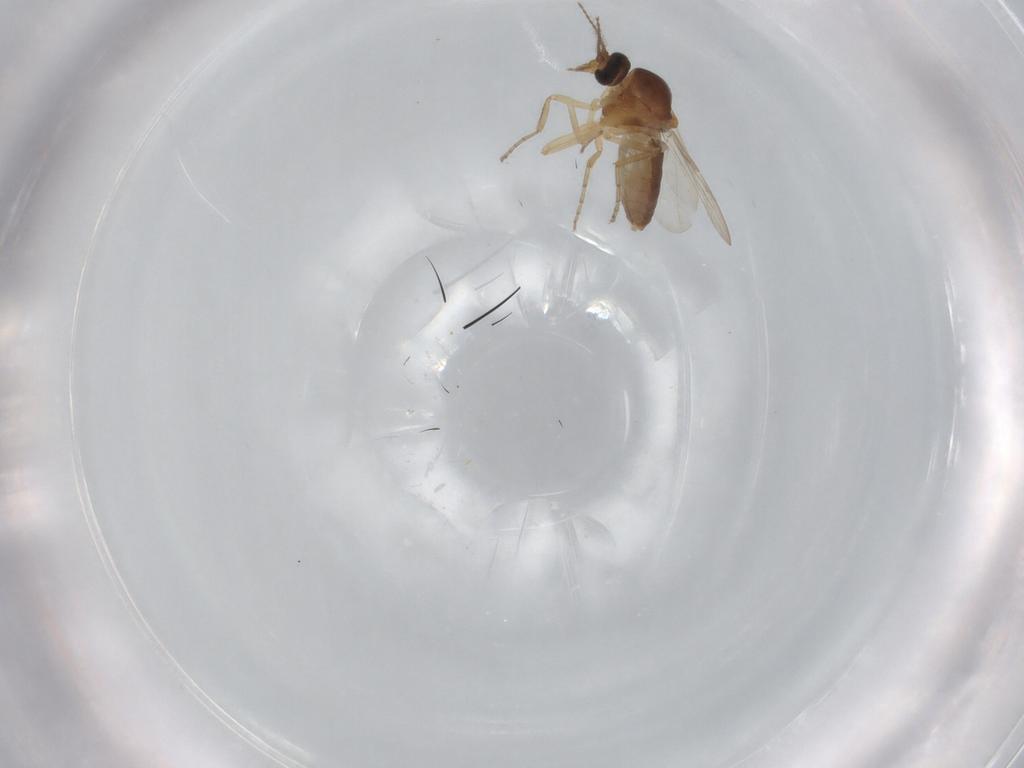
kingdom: Animalia
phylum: Arthropoda
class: Insecta
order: Diptera
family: Ceratopogonidae
